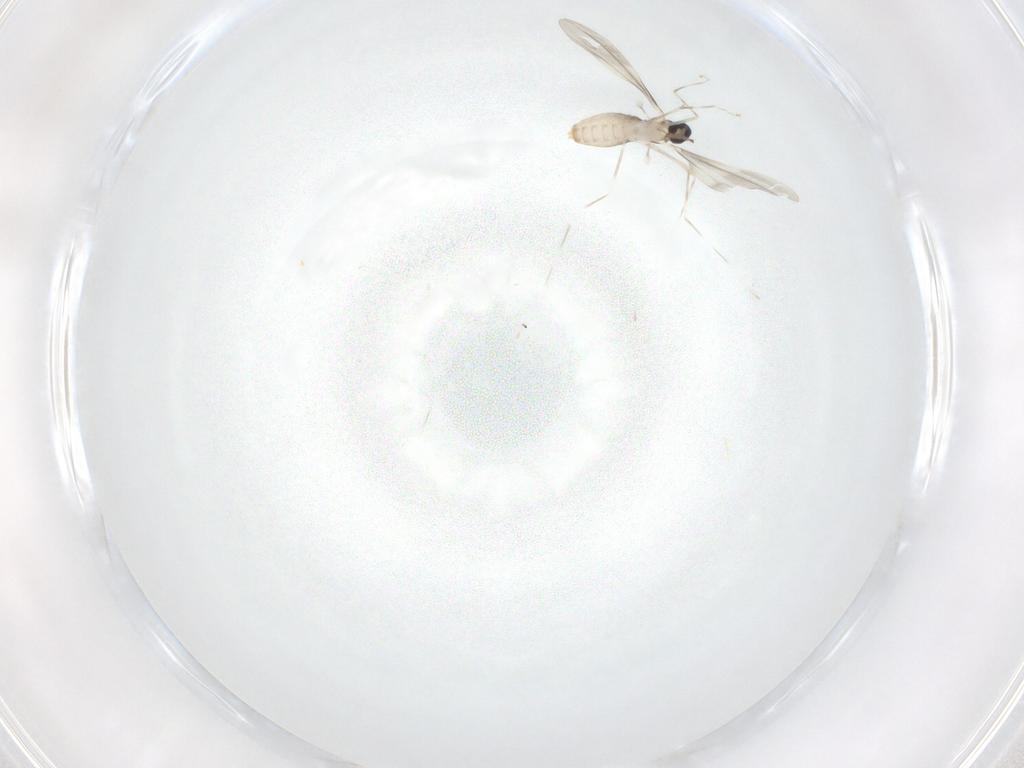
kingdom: Animalia
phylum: Arthropoda
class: Insecta
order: Diptera
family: Cecidomyiidae
